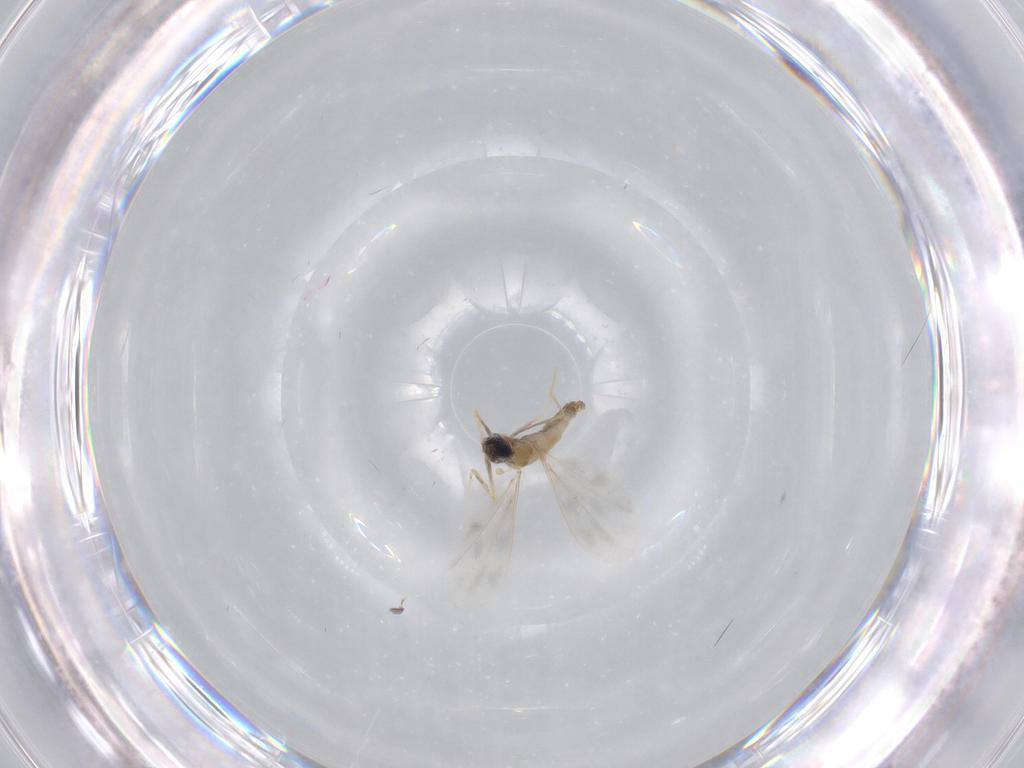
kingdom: Animalia
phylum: Arthropoda
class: Insecta
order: Diptera
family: Cecidomyiidae
